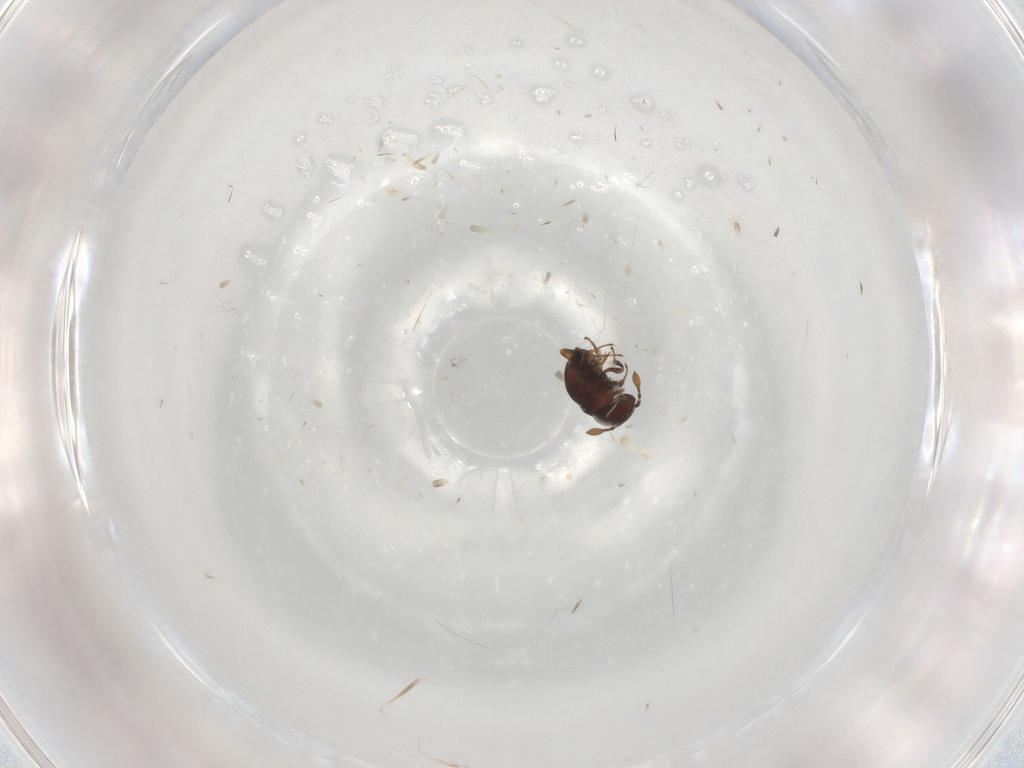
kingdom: Animalia
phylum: Arthropoda
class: Insecta
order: Hymenoptera
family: Scelionidae
